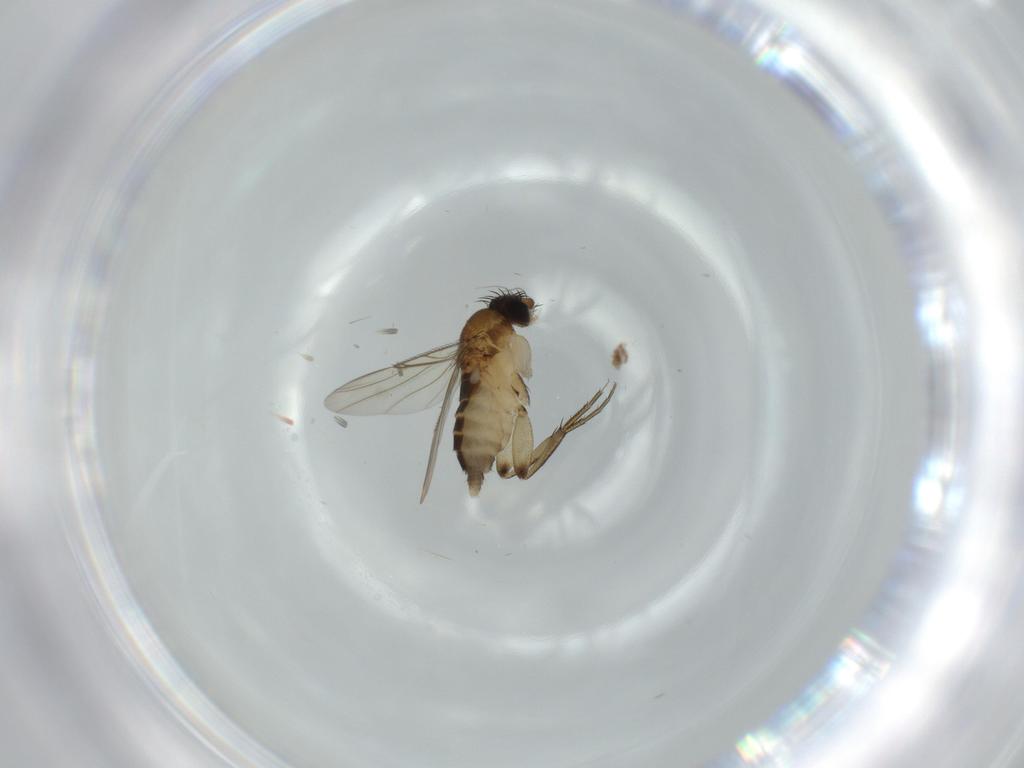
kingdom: Animalia
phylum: Arthropoda
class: Insecta
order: Diptera
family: Phoridae
